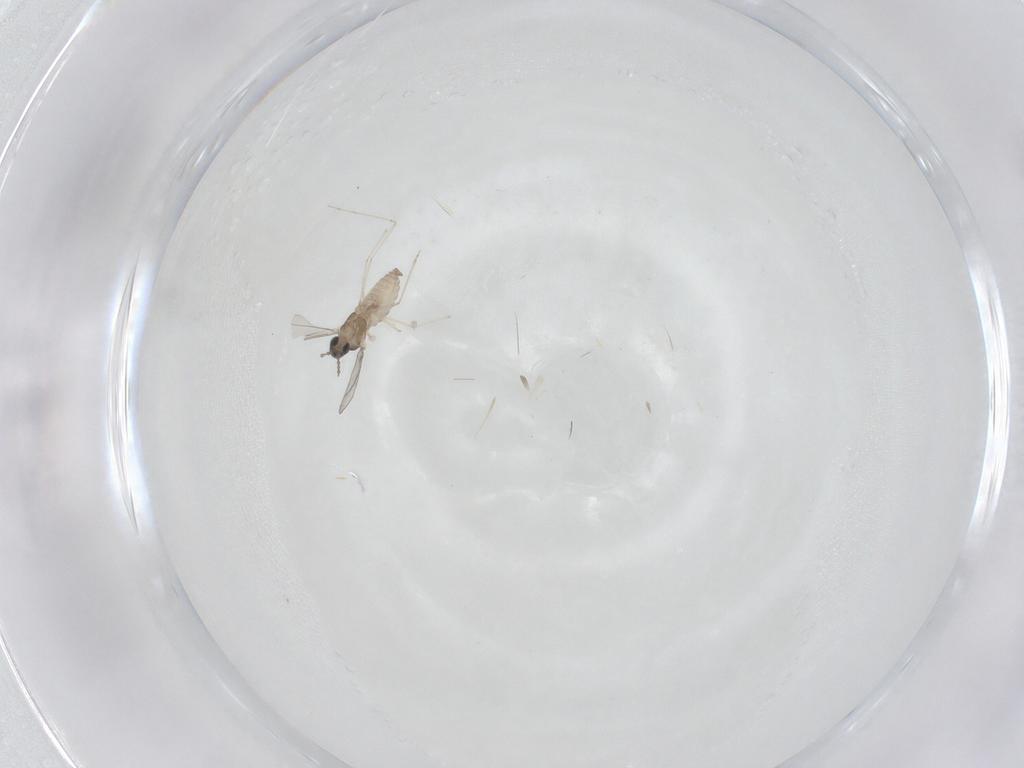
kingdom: Animalia
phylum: Arthropoda
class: Insecta
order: Diptera
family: Cecidomyiidae
